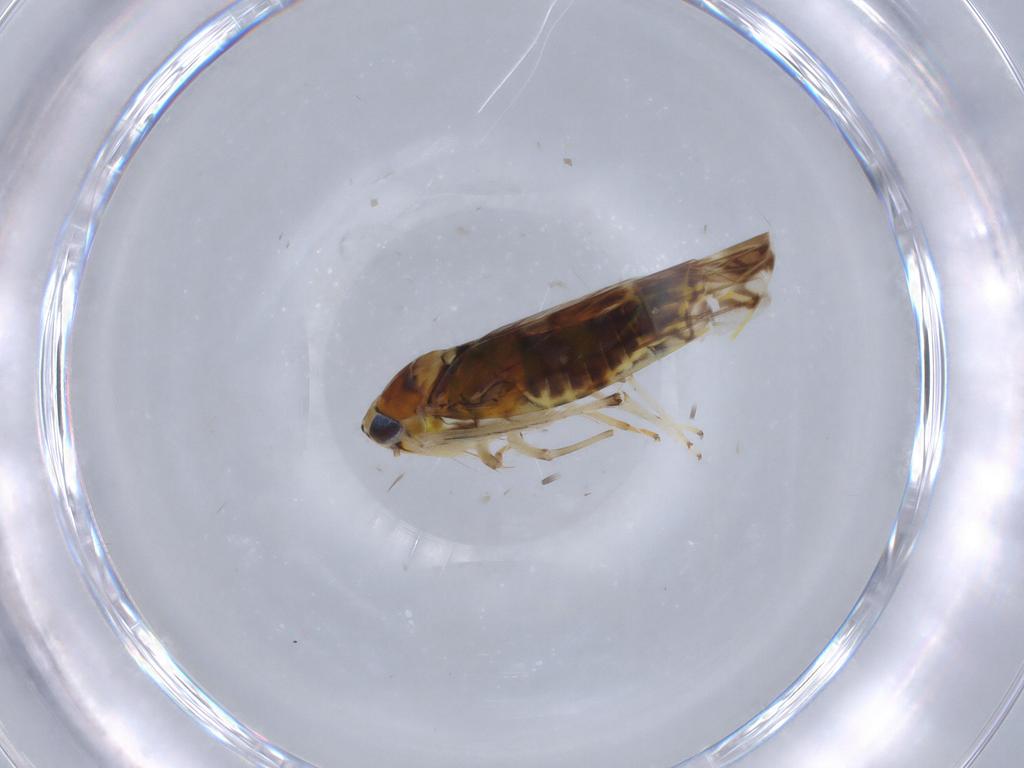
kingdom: Animalia
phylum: Arthropoda
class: Insecta
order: Hemiptera
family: Cicadellidae
